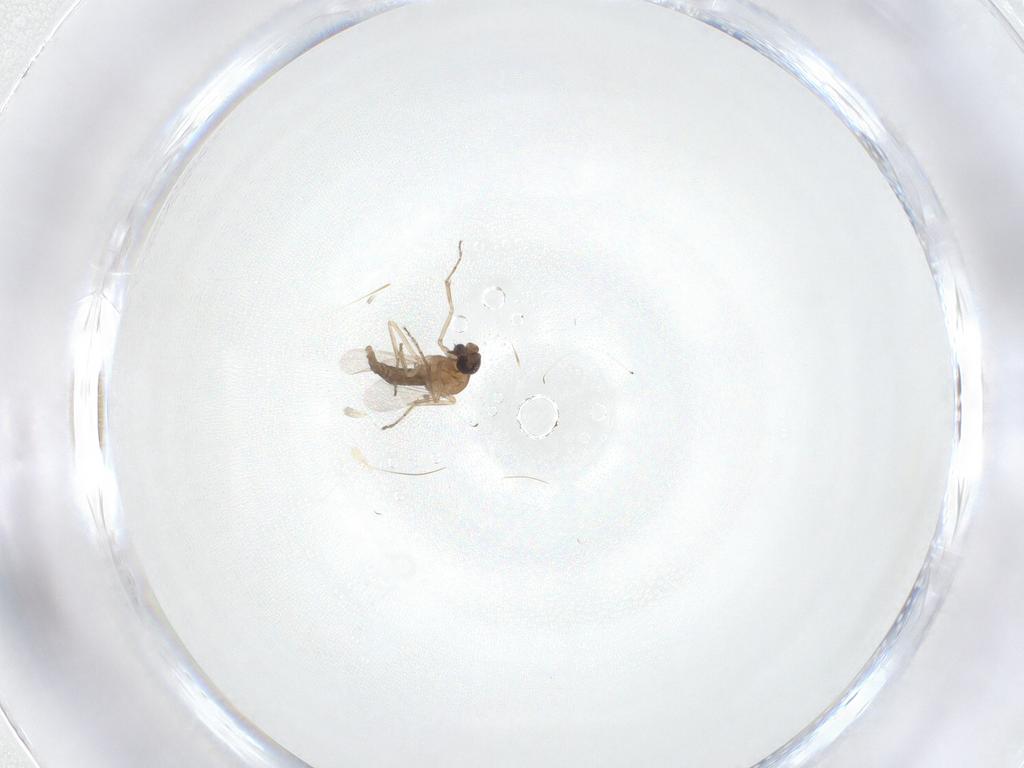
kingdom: Animalia
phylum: Arthropoda
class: Insecta
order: Diptera
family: Ceratopogonidae
